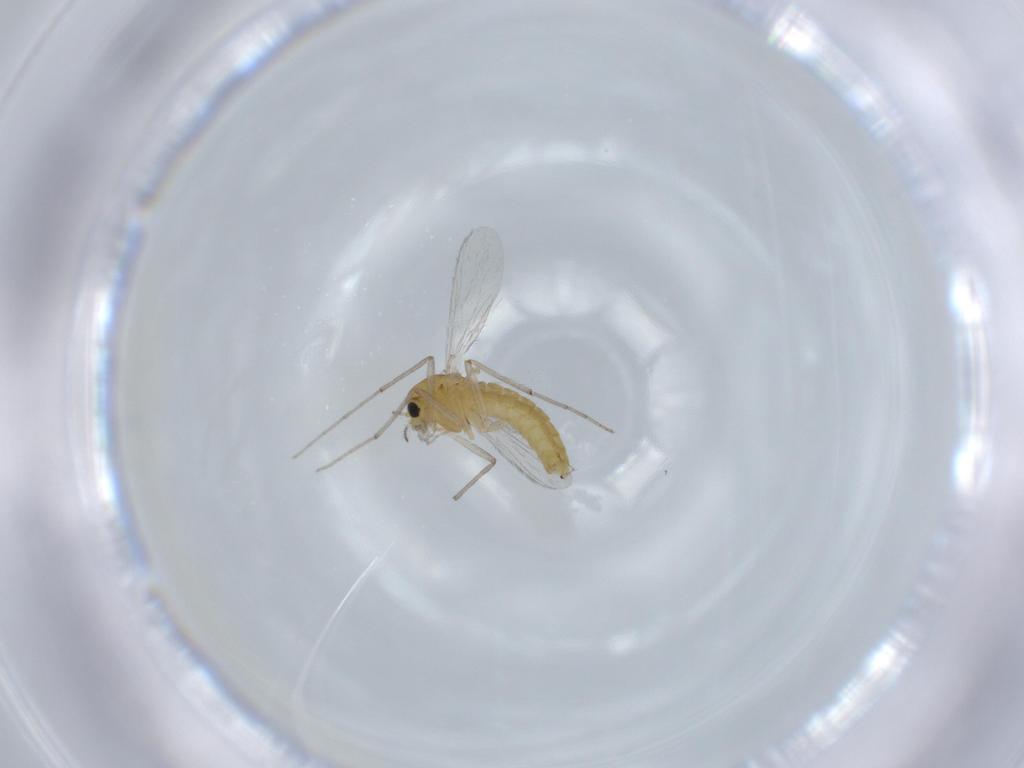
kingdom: Animalia
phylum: Arthropoda
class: Insecta
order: Diptera
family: Chironomidae
